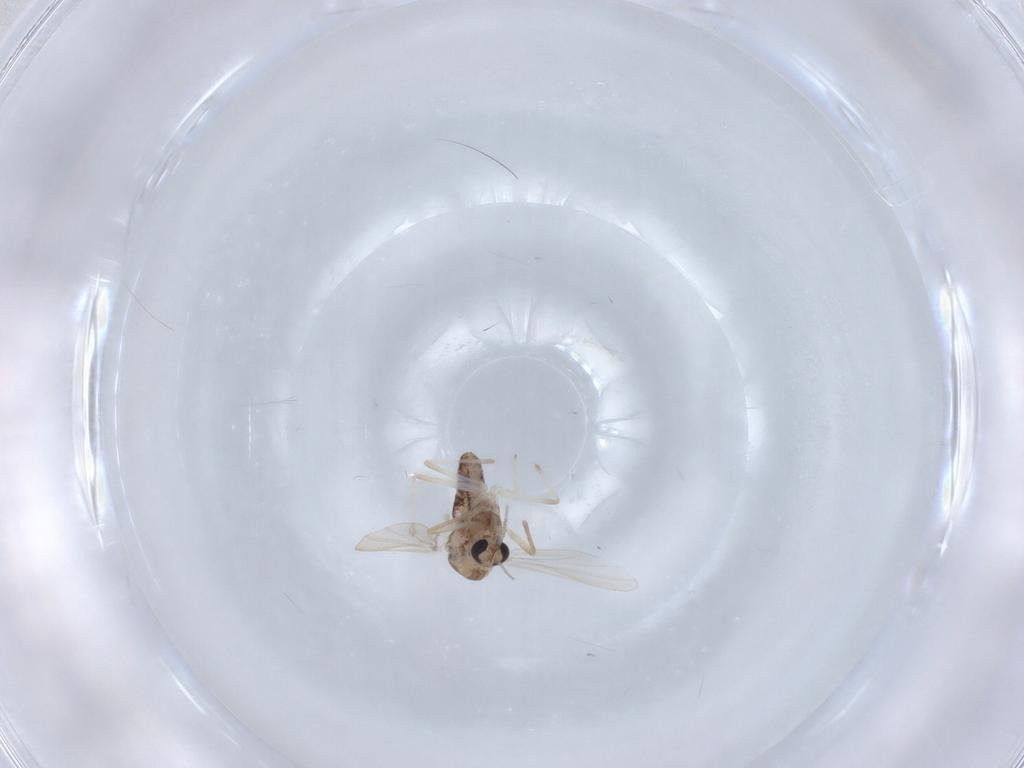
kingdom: Animalia
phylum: Arthropoda
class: Insecta
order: Diptera
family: Chironomidae
